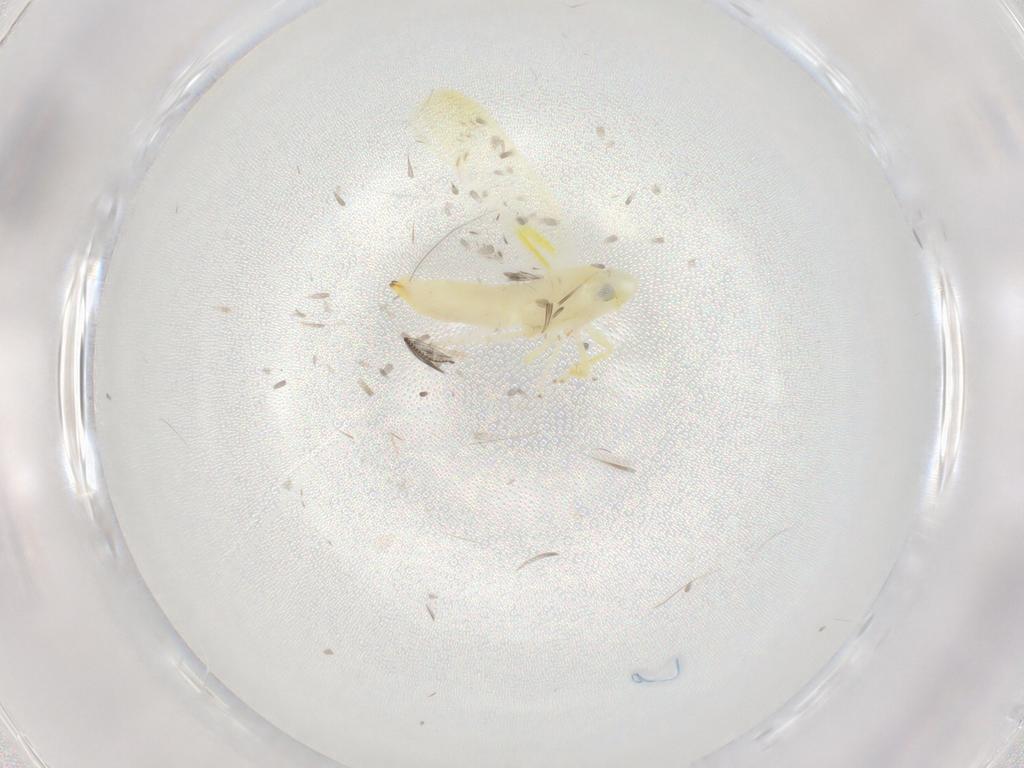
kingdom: Animalia
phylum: Arthropoda
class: Insecta
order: Hemiptera
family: Cicadellidae
